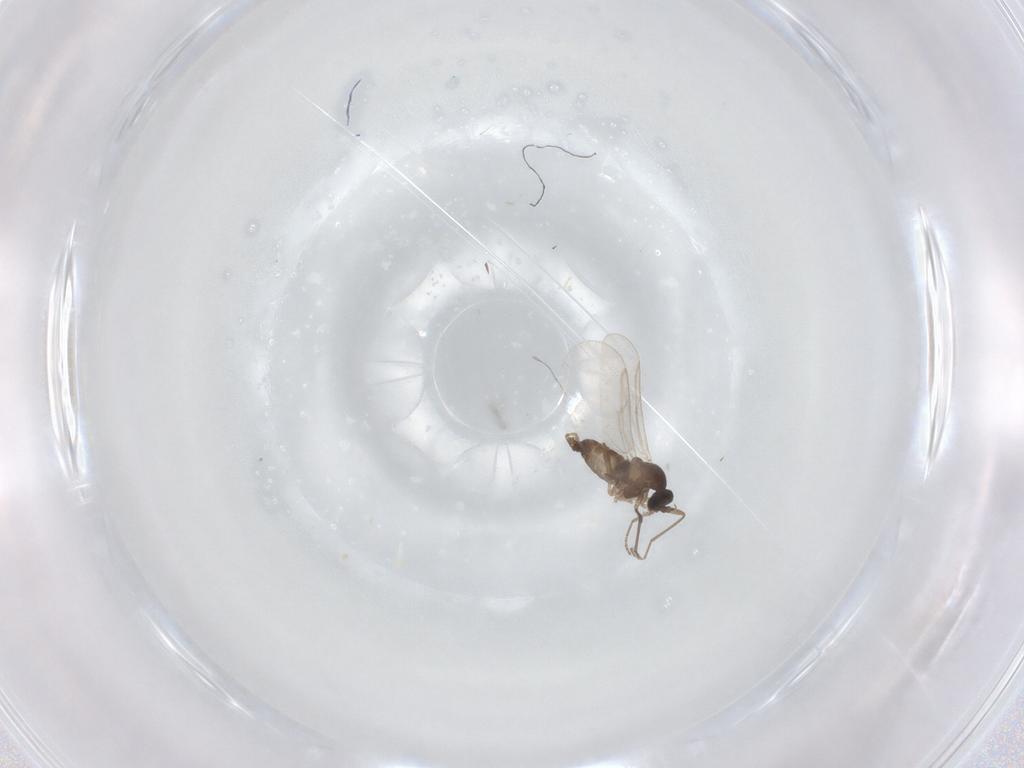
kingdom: Animalia
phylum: Arthropoda
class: Insecta
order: Diptera
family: Cecidomyiidae
